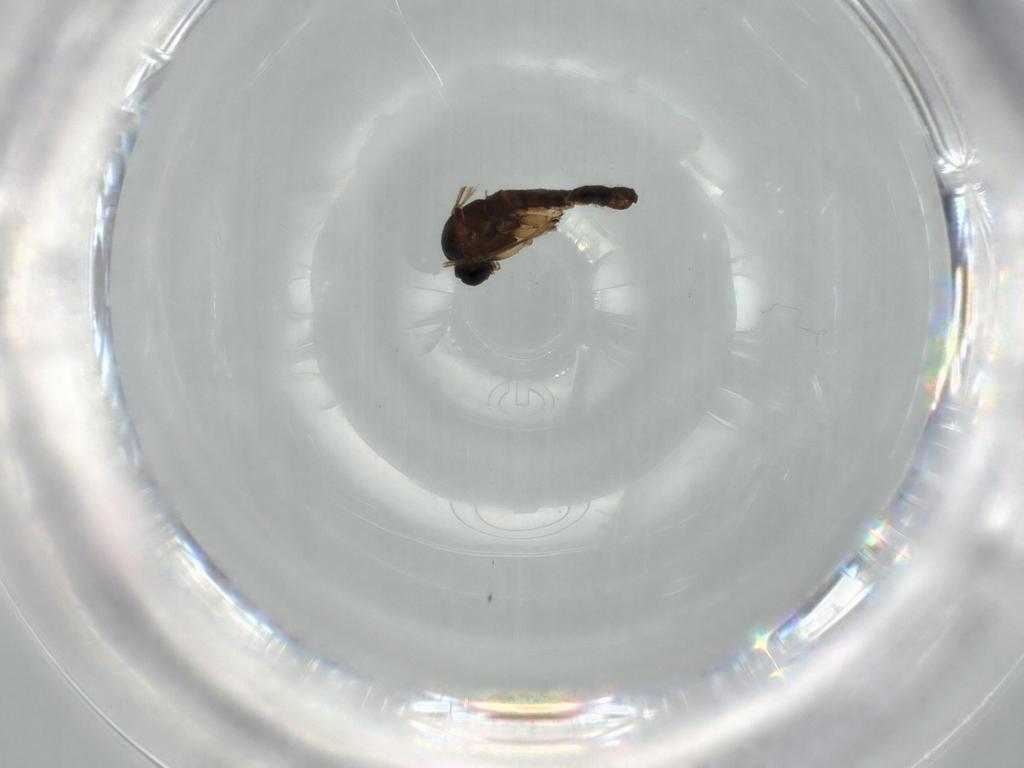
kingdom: Animalia
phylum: Arthropoda
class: Insecta
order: Diptera
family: Sciaridae
